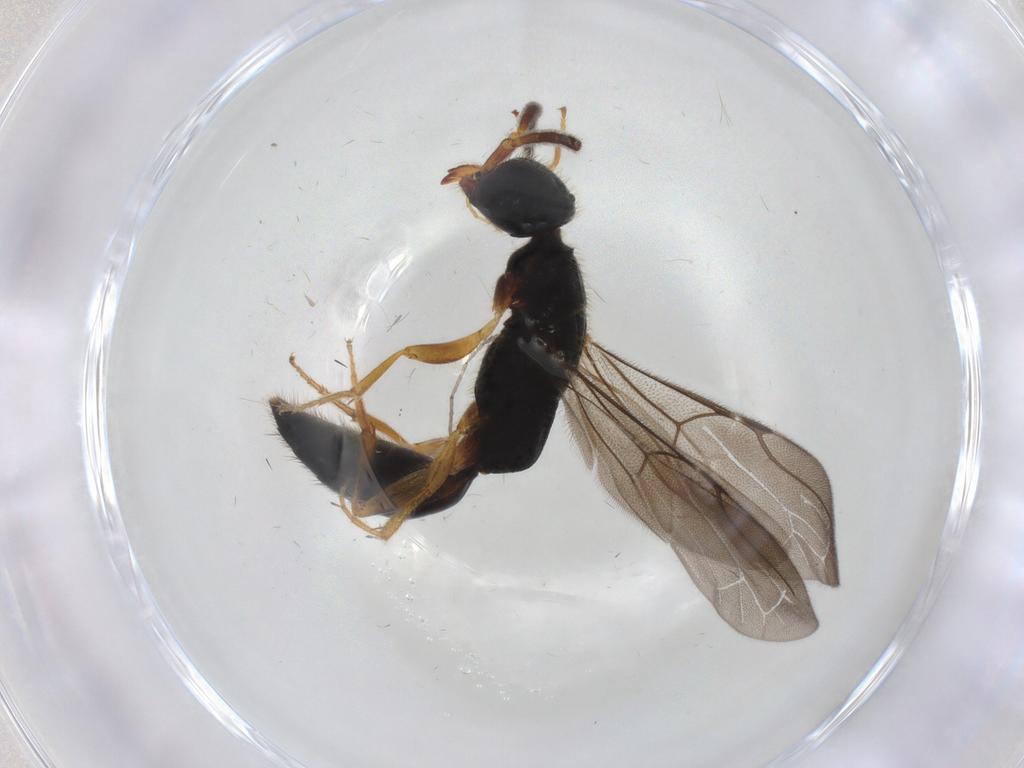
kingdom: Animalia
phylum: Arthropoda
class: Insecta
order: Hymenoptera
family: Bethylidae
